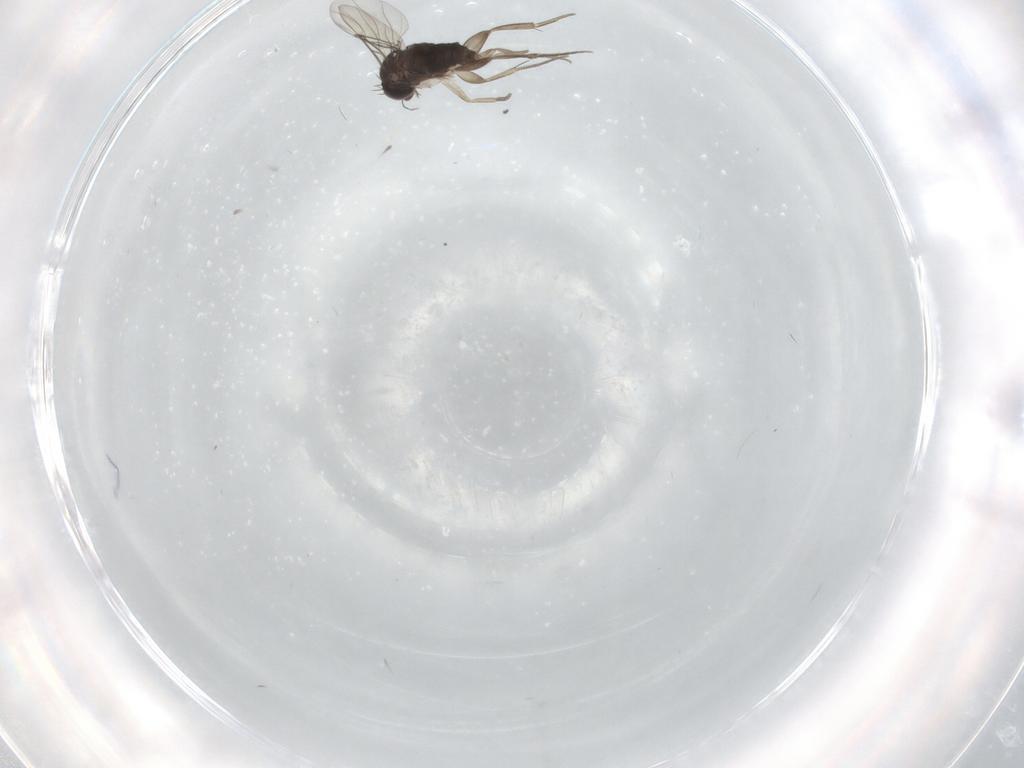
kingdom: Animalia
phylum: Arthropoda
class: Insecta
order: Diptera
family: Phoridae
